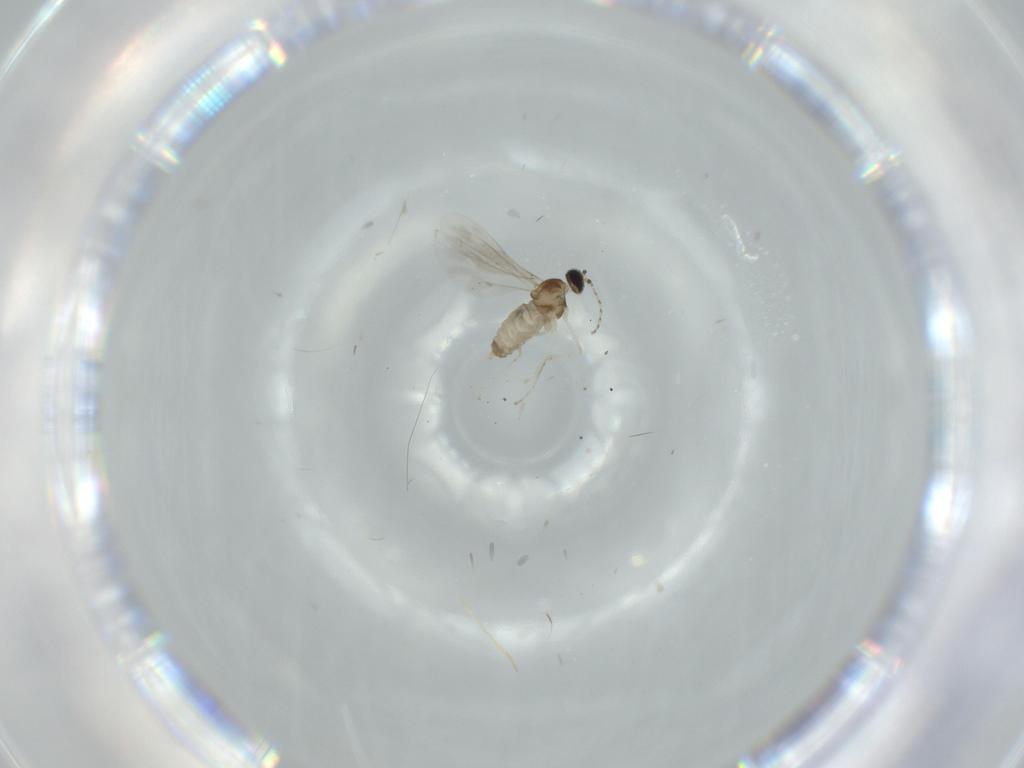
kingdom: Animalia
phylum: Arthropoda
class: Insecta
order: Diptera
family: Cecidomyiidae
